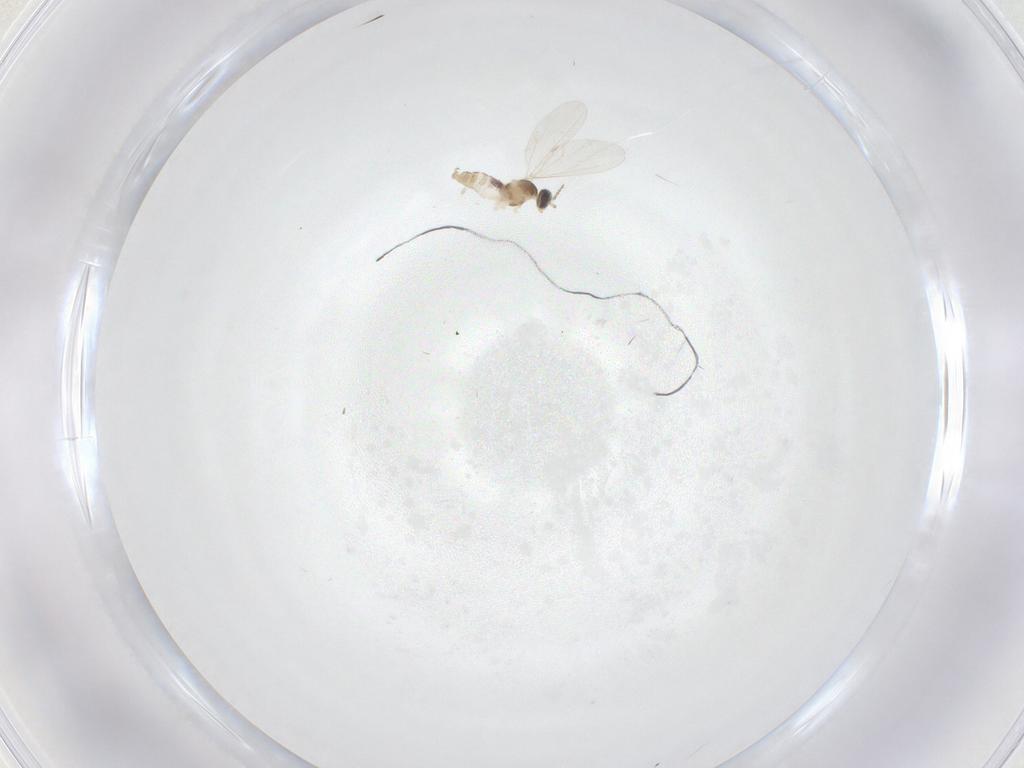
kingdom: Animalia
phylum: Arthropoda
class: Insecta
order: Diptera
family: Cecidomyiidae
